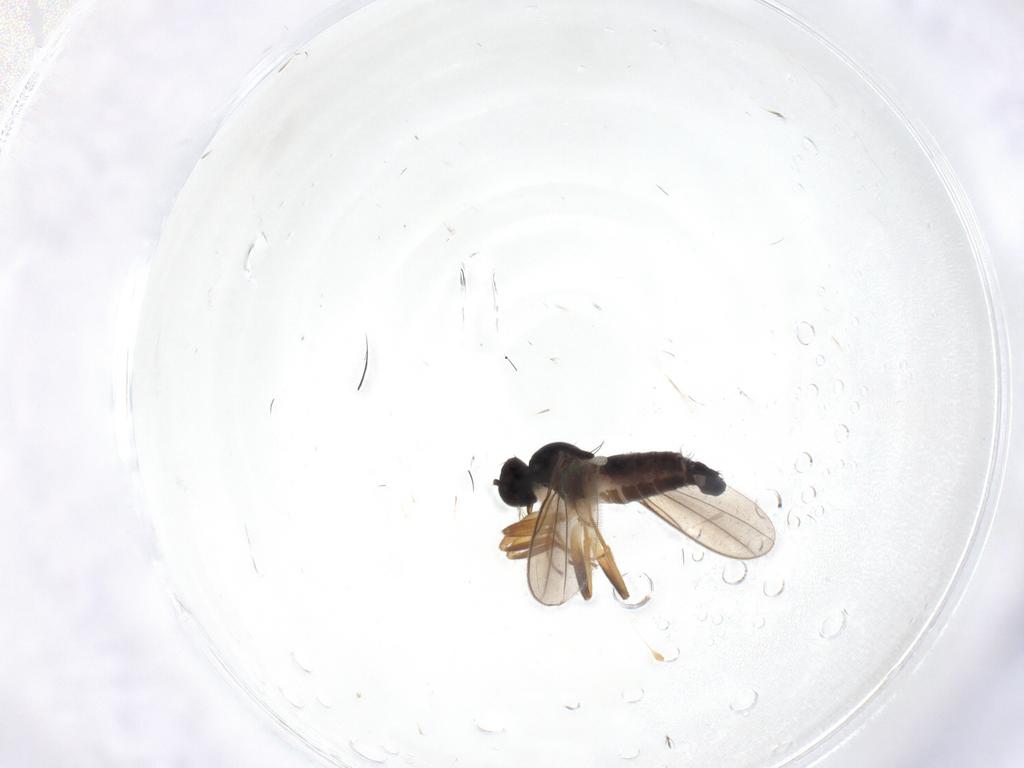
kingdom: Animalia
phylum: Arthropoda
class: Insecta
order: Diptera
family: Hybotidae
